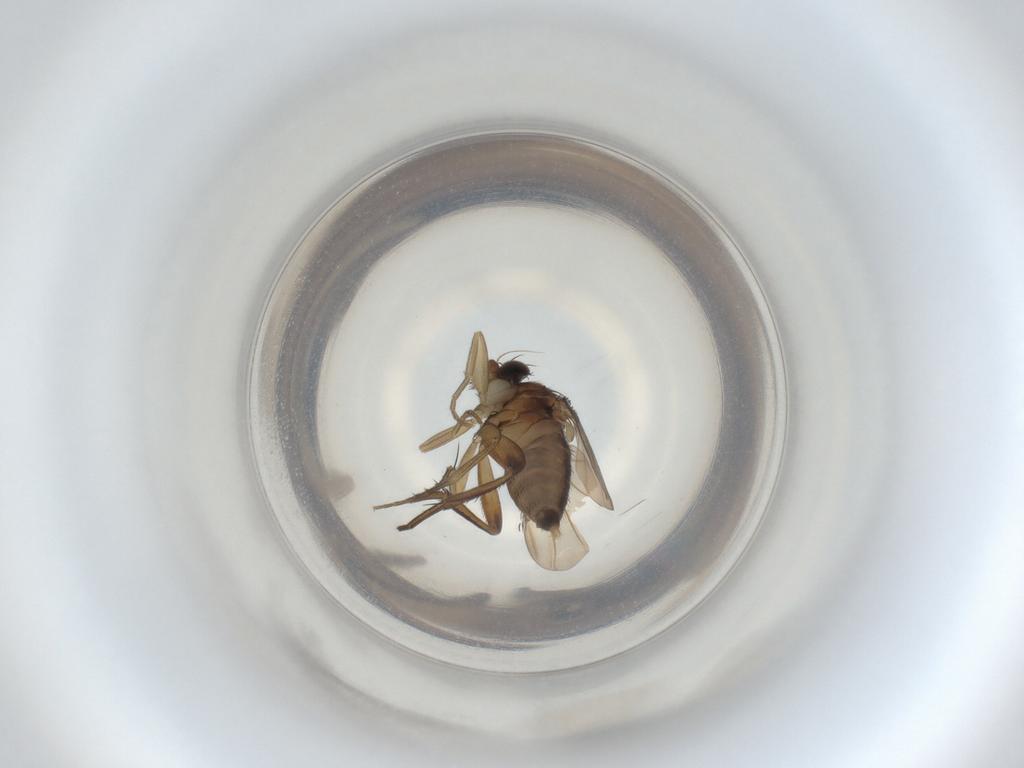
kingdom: Animalia
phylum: Arthropoda
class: Insecta
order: Diptera
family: Phoridae
